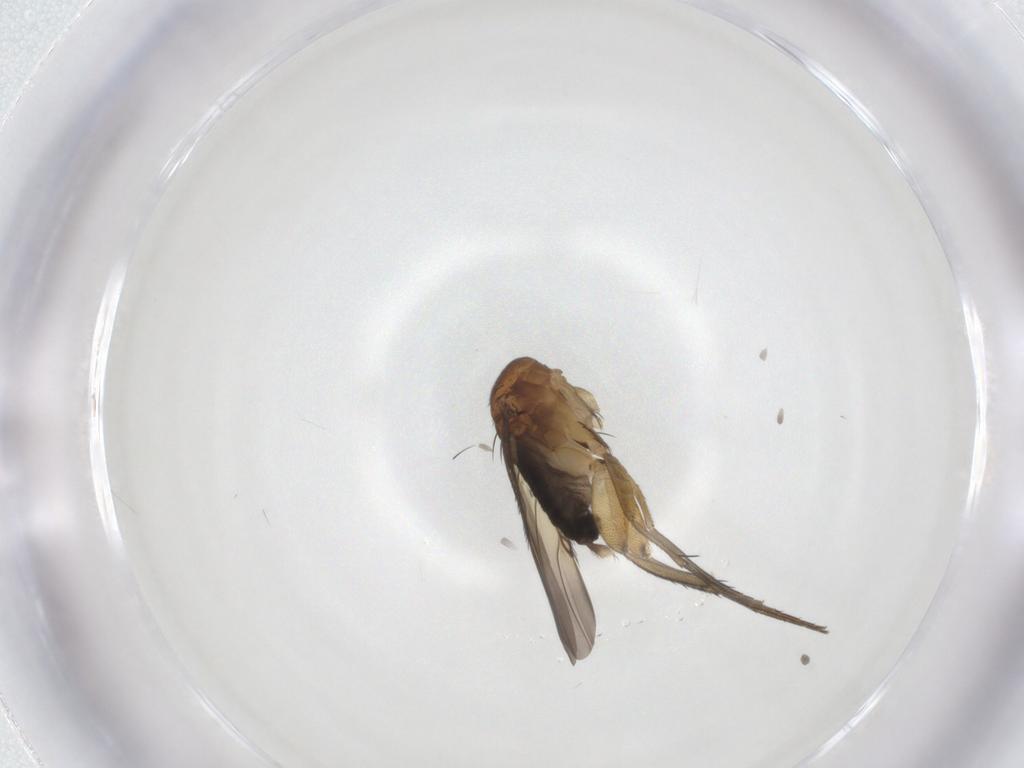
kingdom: Animalia
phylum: Arthropoda
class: Insecta
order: Diptera
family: Phoridae
